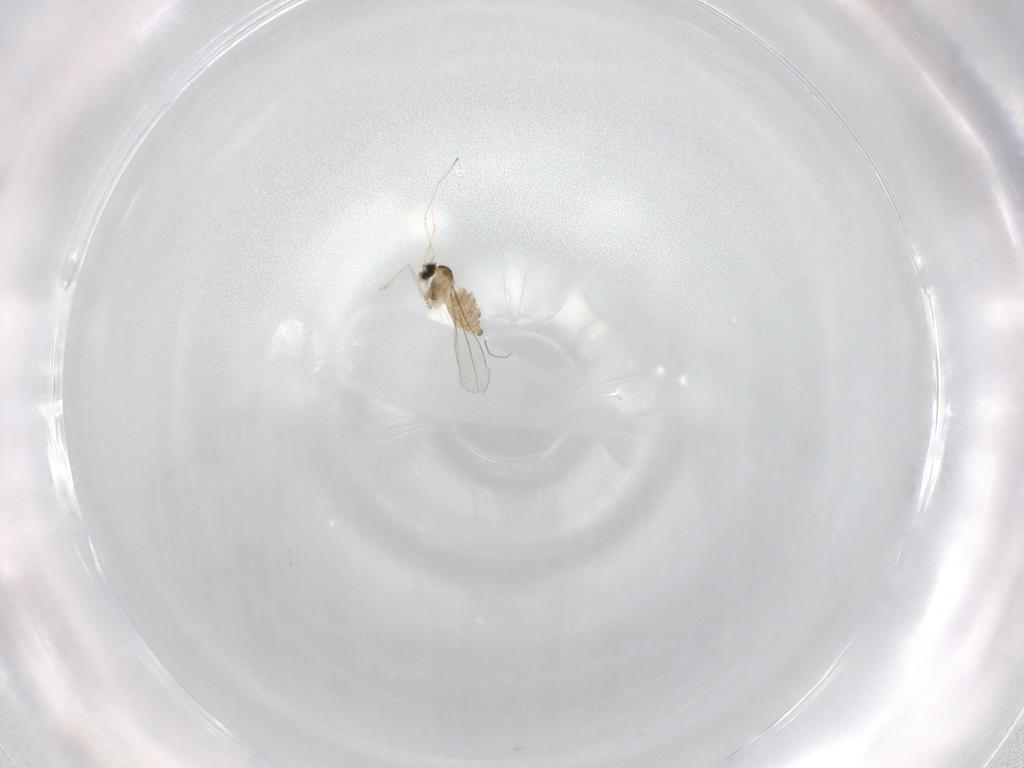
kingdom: Animalia
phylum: Arthropoda
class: Insecta
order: Diptera
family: Cecidomyiidae
